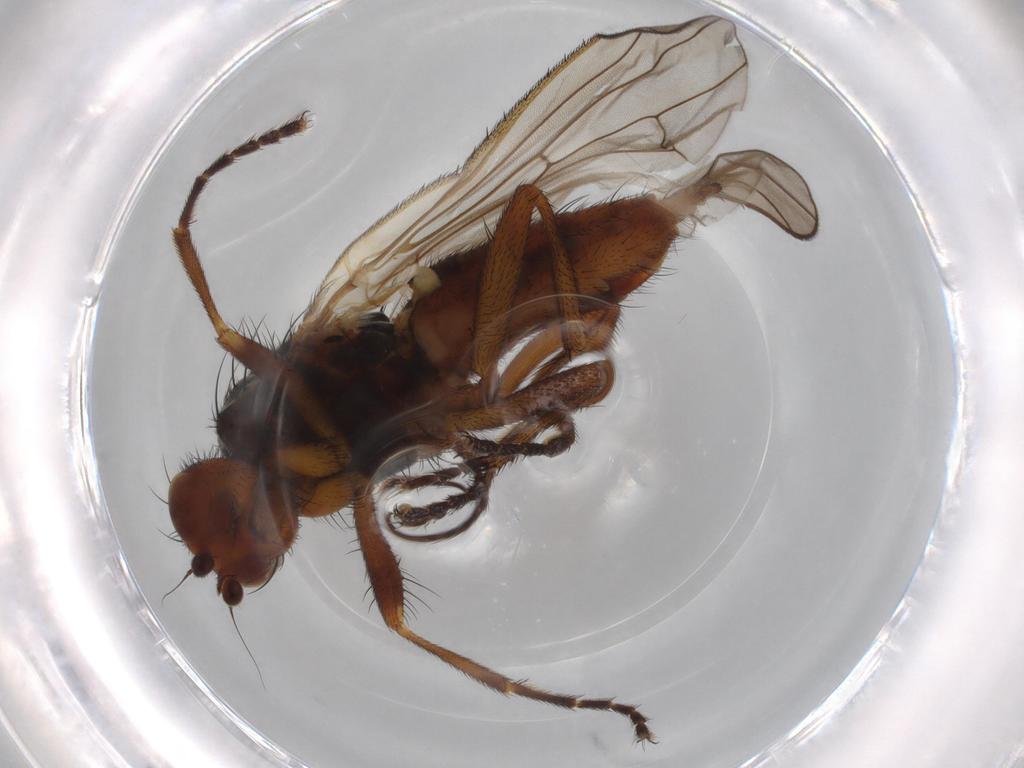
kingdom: Animalia
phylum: Arthropoda
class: Insecta
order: Diptera
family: Heleomyzidae
